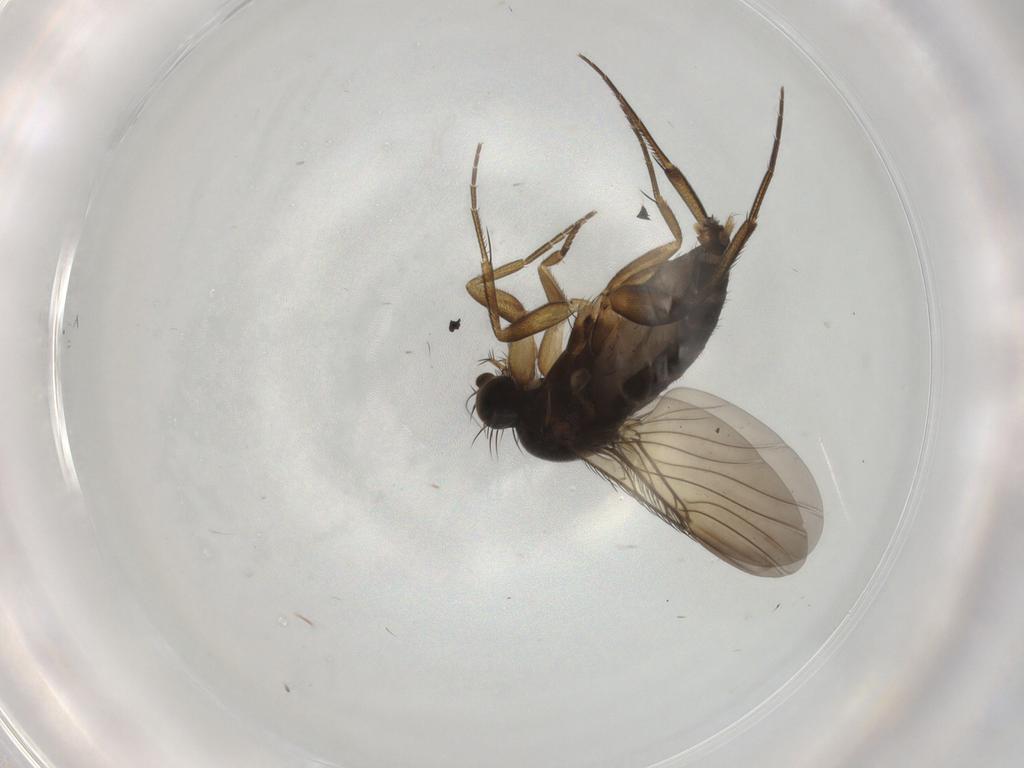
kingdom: Animalia
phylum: Arthropoda
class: Insecta
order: Diptera
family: Phoridae
